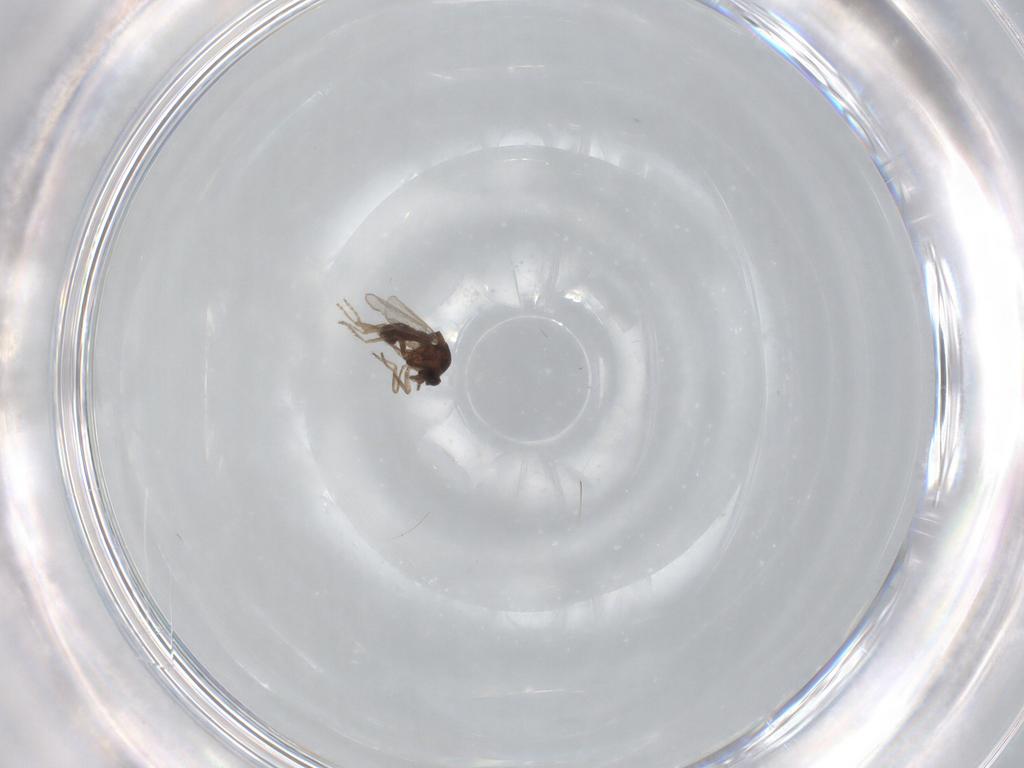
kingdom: Animalia
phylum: Arthropoda
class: Insecta
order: Diptera
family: Ceratopogonidae
